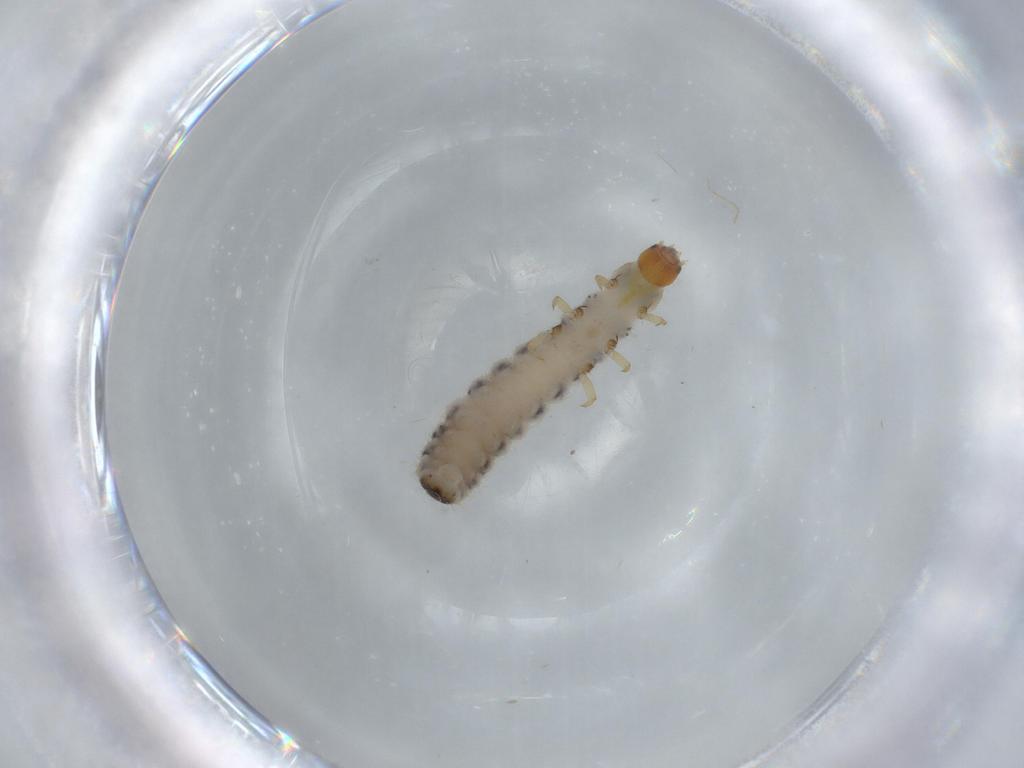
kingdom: Animalia
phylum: Arthropoda
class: Insecta
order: Coleoptera
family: Cleridae
